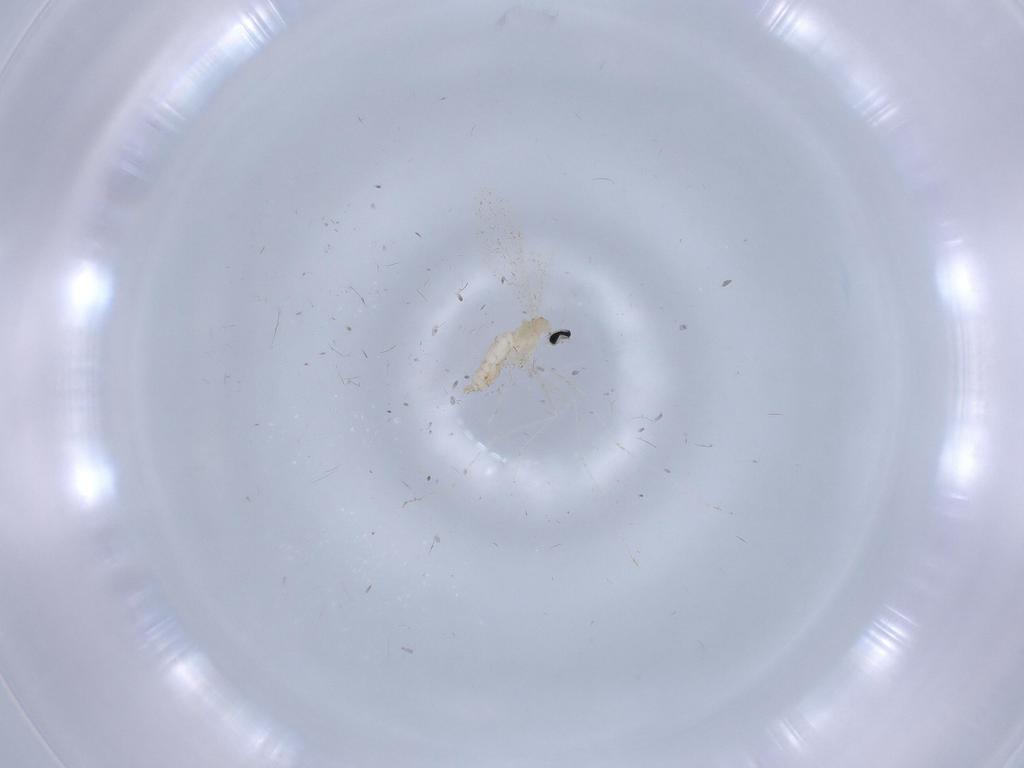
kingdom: Animalia
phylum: Arthropoda
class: Insecta
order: Diptera
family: Cecidomyiidae
